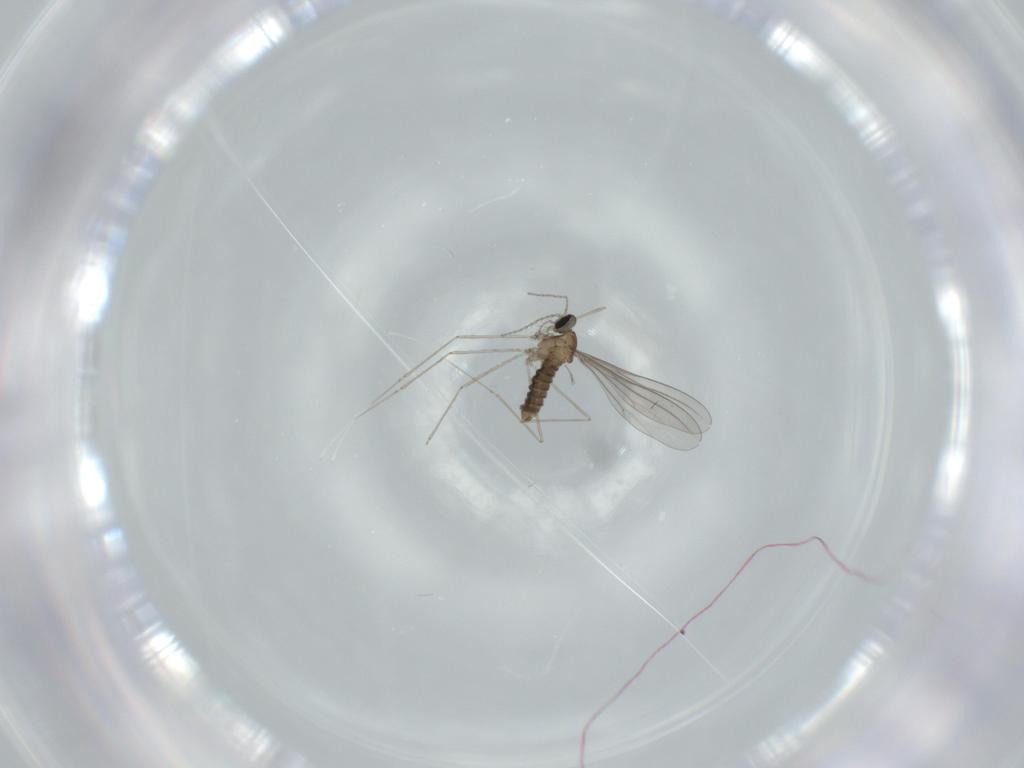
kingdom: Animalia
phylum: Arthropoda
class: Insecta
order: Diptera
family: Cecidomyiidae
